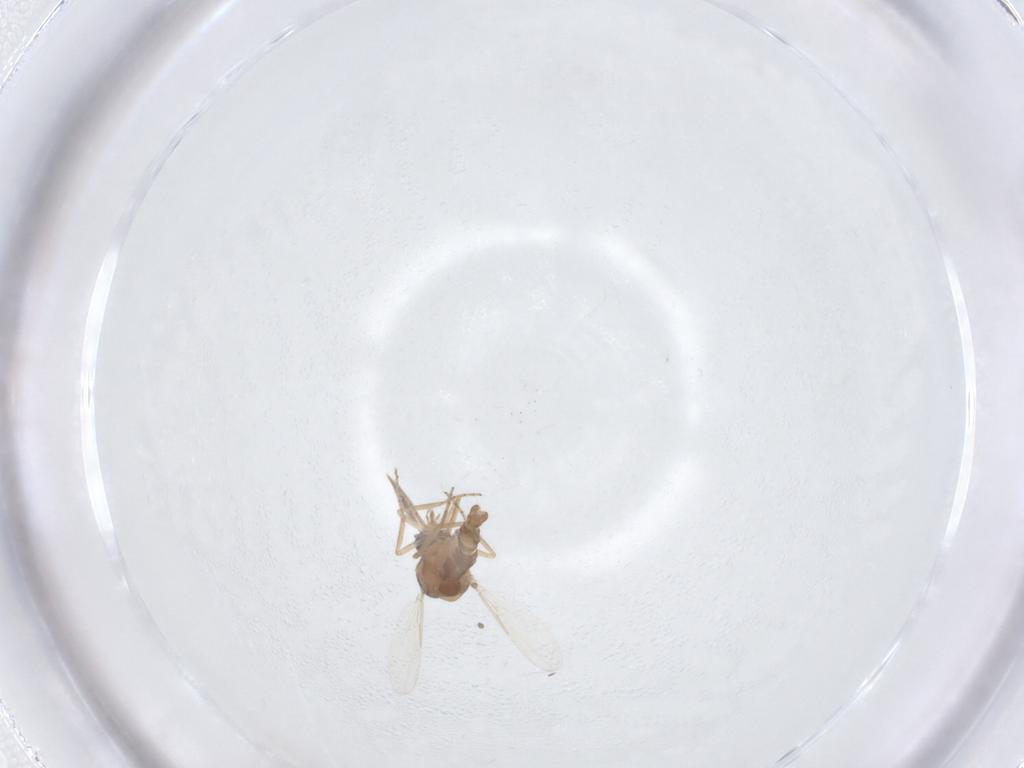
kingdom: Animalia
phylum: Arthropoda
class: Insecta
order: Diptera
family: Ceratopogonidae
